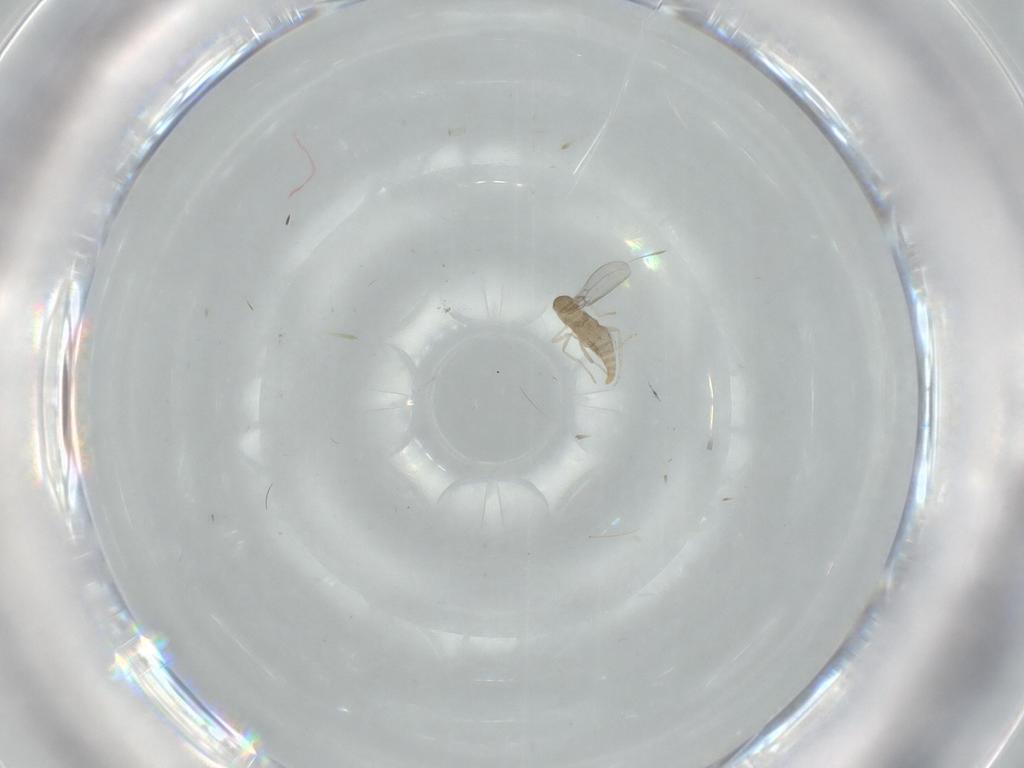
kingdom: Animalia
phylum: Arthropoda
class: Insecta
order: Diptera
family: Cecidomyiidae
